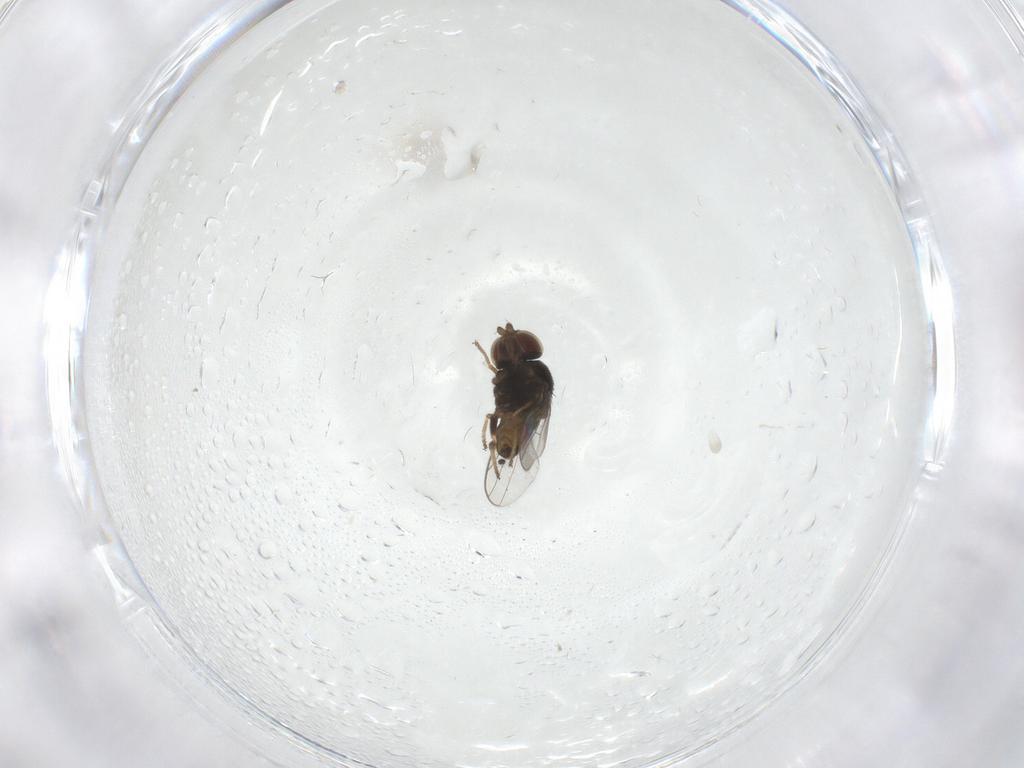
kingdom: Animalia
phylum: Arthropoda
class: Insecta
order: Diptera
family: Chloropidae
